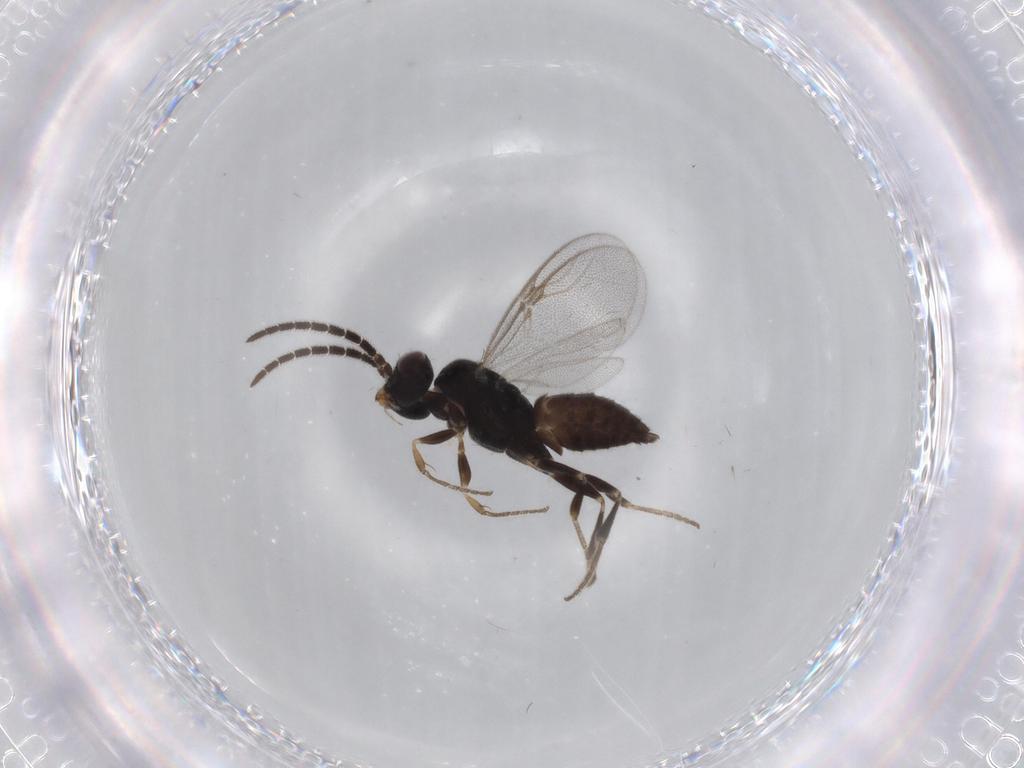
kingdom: Animalia
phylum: Arthropoda
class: Insecta
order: Hymenoptera
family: Dryinidae
